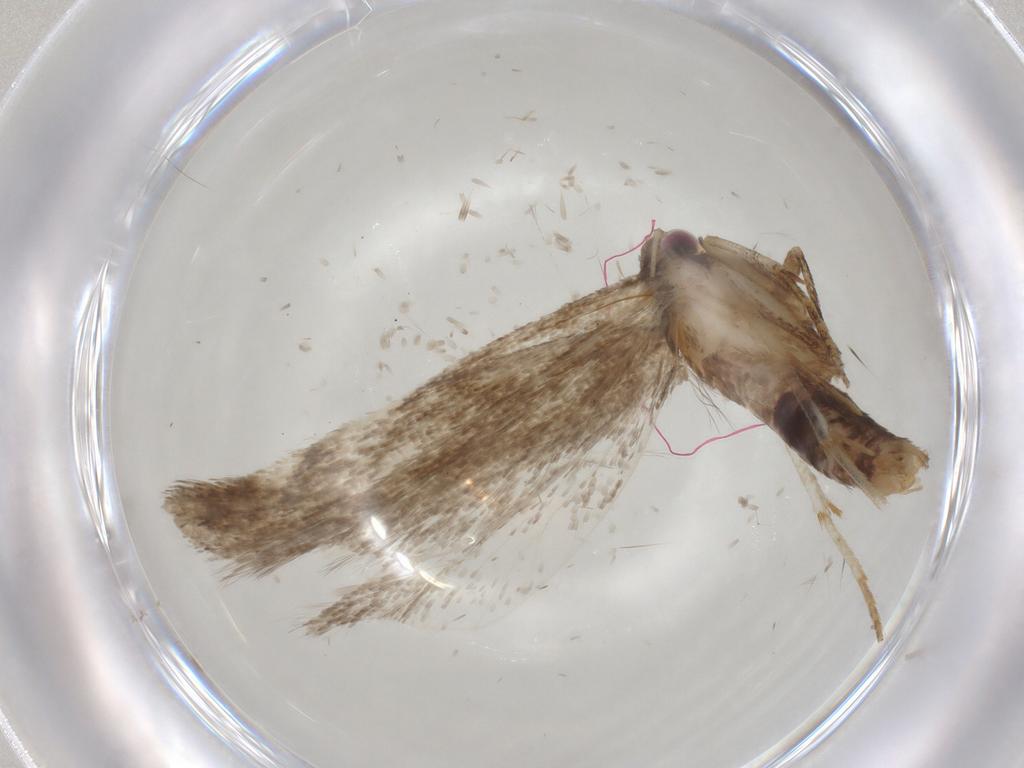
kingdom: Animalia
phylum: Arthropoda
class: Insecta
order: Lepidoptera
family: Gelechiidae
